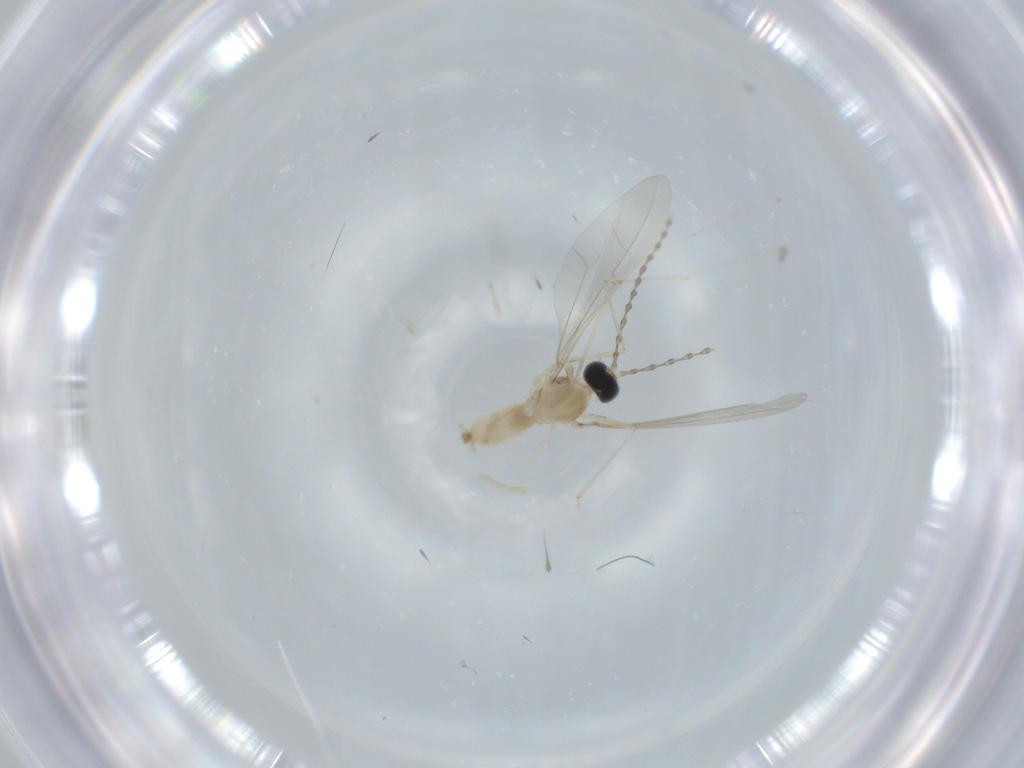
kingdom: Animalia
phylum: Arthropoda
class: Insecta
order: Diptera
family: Cecidomyiidae
